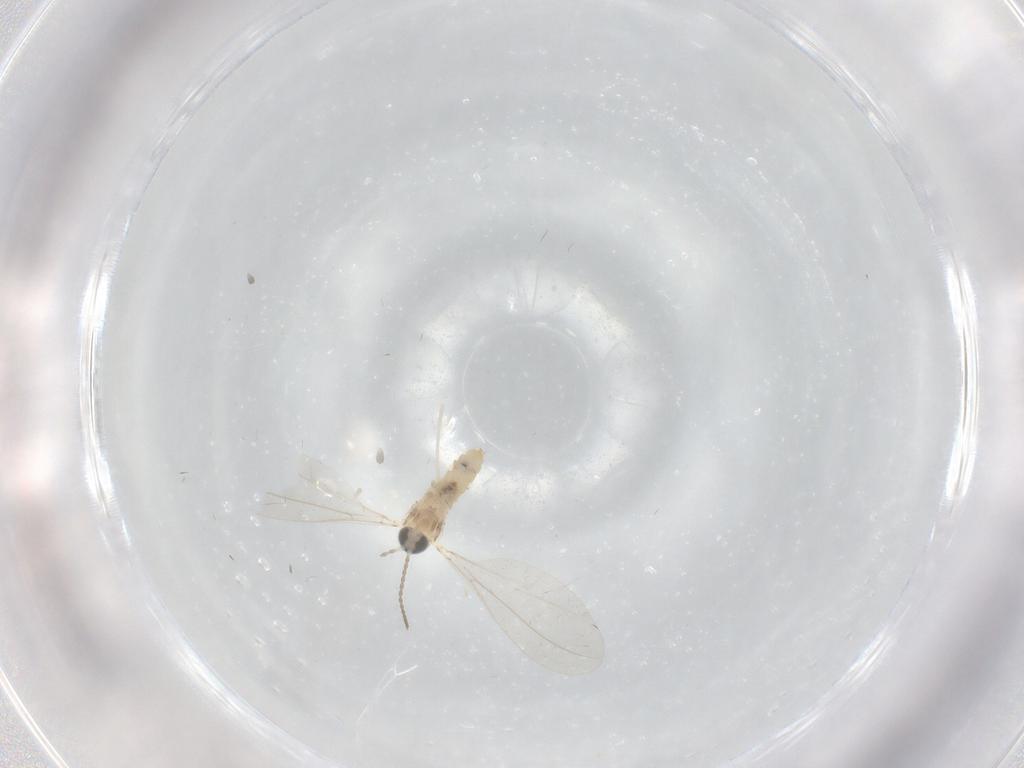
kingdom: Animalia
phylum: Arthropoda
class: Insecta
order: Diptera
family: Cecidomyiidae
